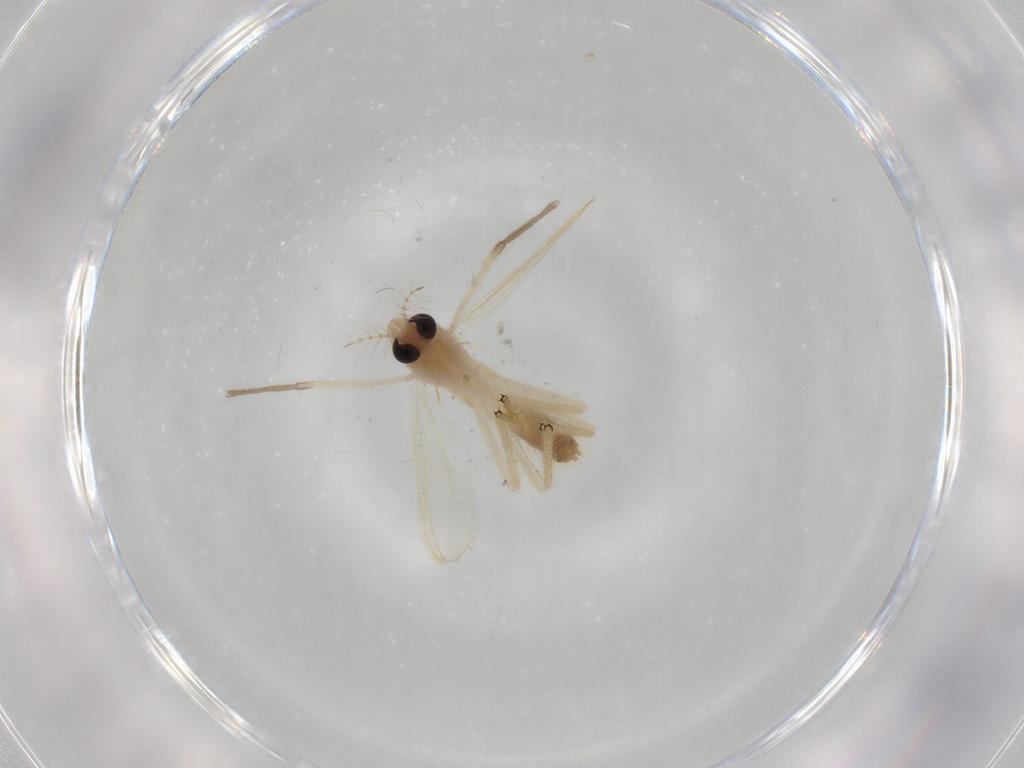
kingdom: Animalia
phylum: Arthropoda
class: Insecta
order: Diptera
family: Chironomidae
